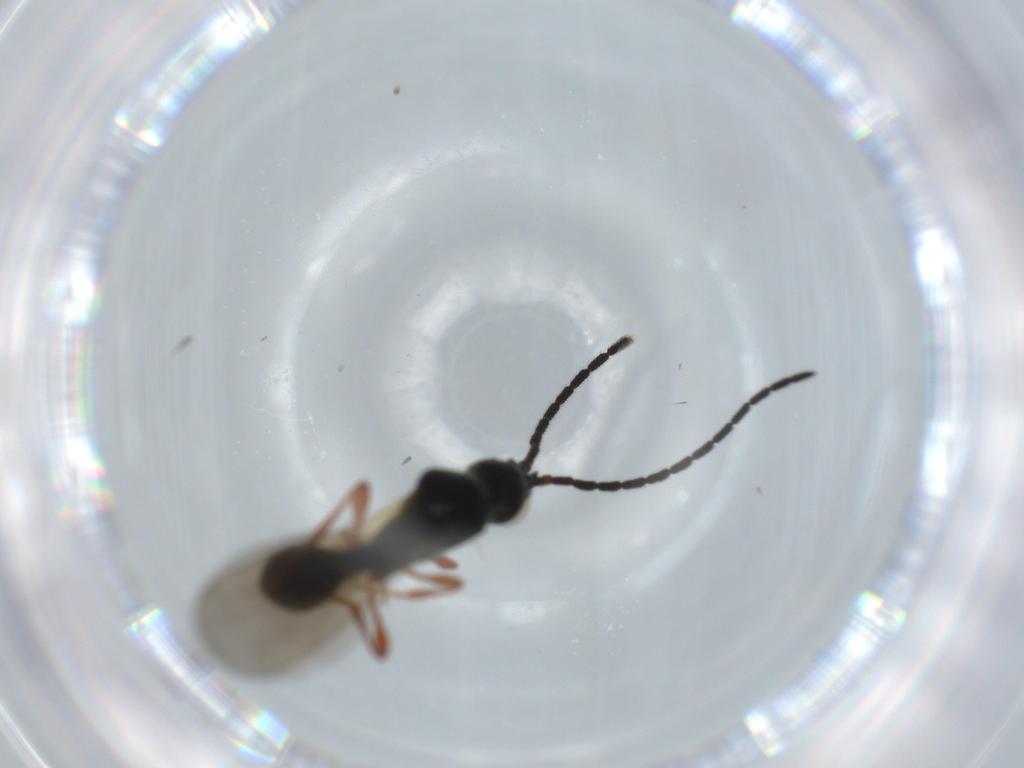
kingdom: Animalia
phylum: Arthropoda
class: Insecta
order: Hymenoptera
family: Diapriidae
